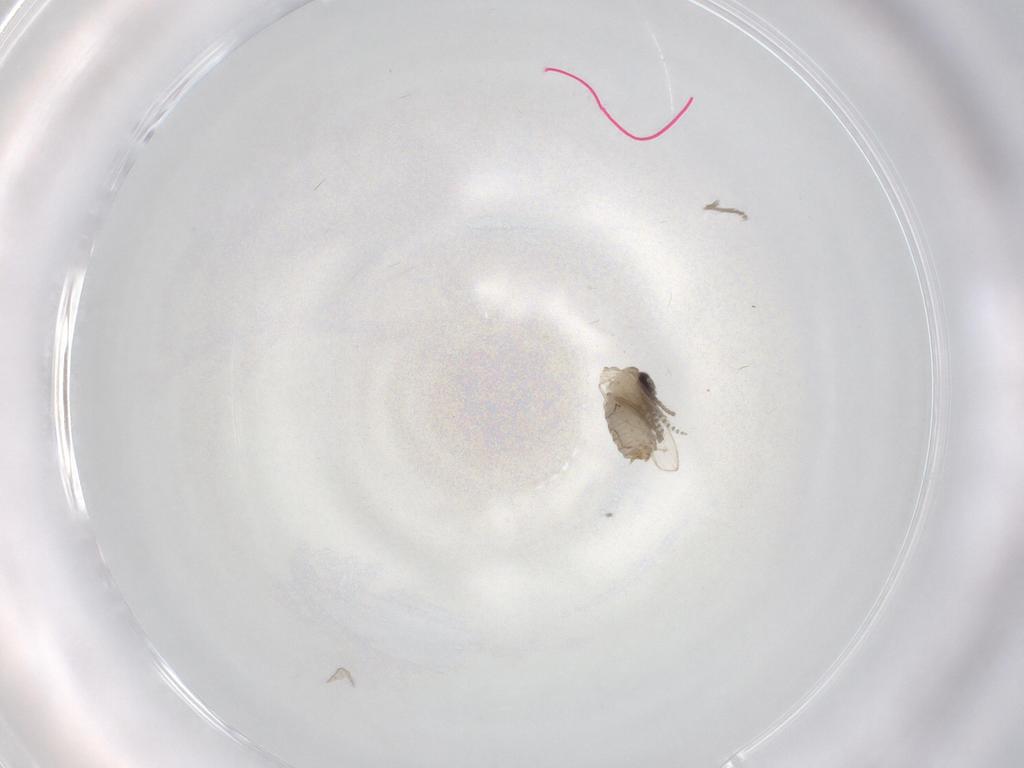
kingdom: Animalia
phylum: Arthropoda
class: Insecta
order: Diptera
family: Psychodidae
